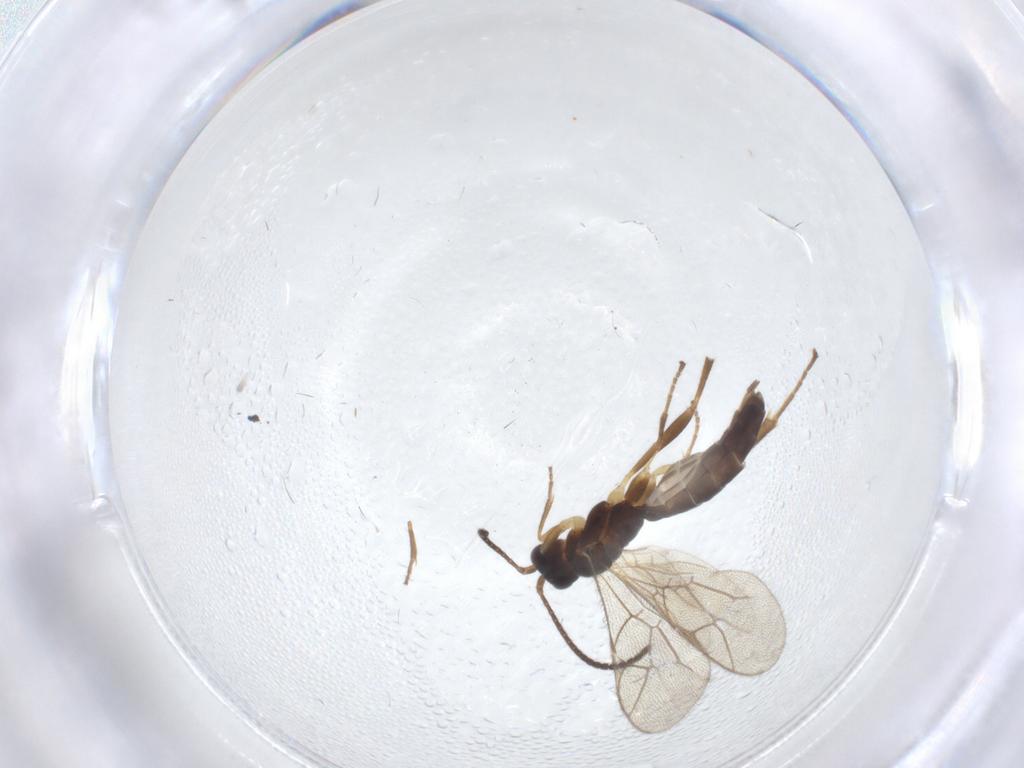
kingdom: Animalia
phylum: Arthropoda
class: Insecta
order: Hymenoptera
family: Ichneumonidae
